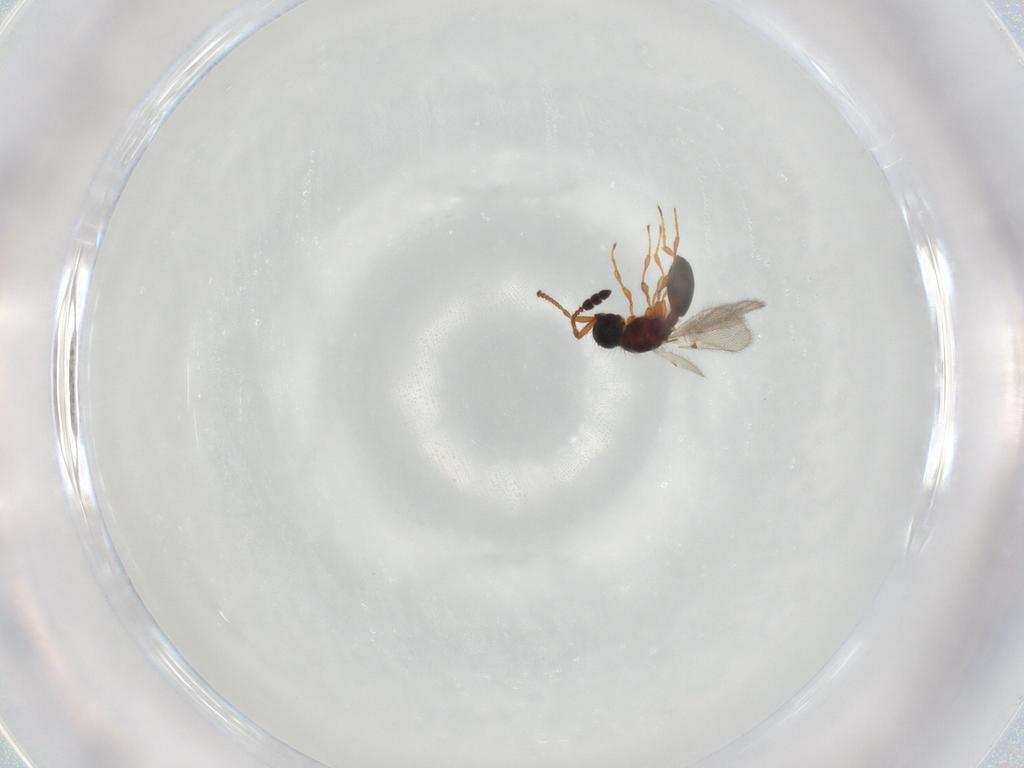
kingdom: Animalia
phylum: Arthropoda
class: Insecta
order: Hymenoptera
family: Diapriidae
